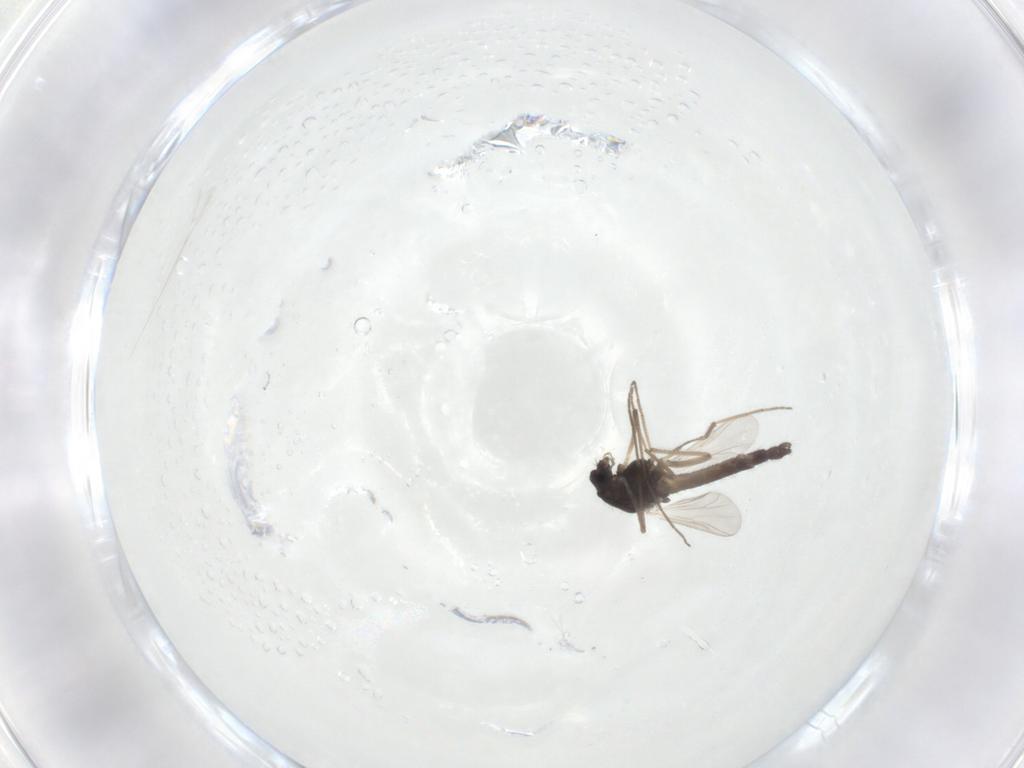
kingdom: Animalia
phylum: Arthropoda
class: Insecta
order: Diptera
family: Chironomidae
